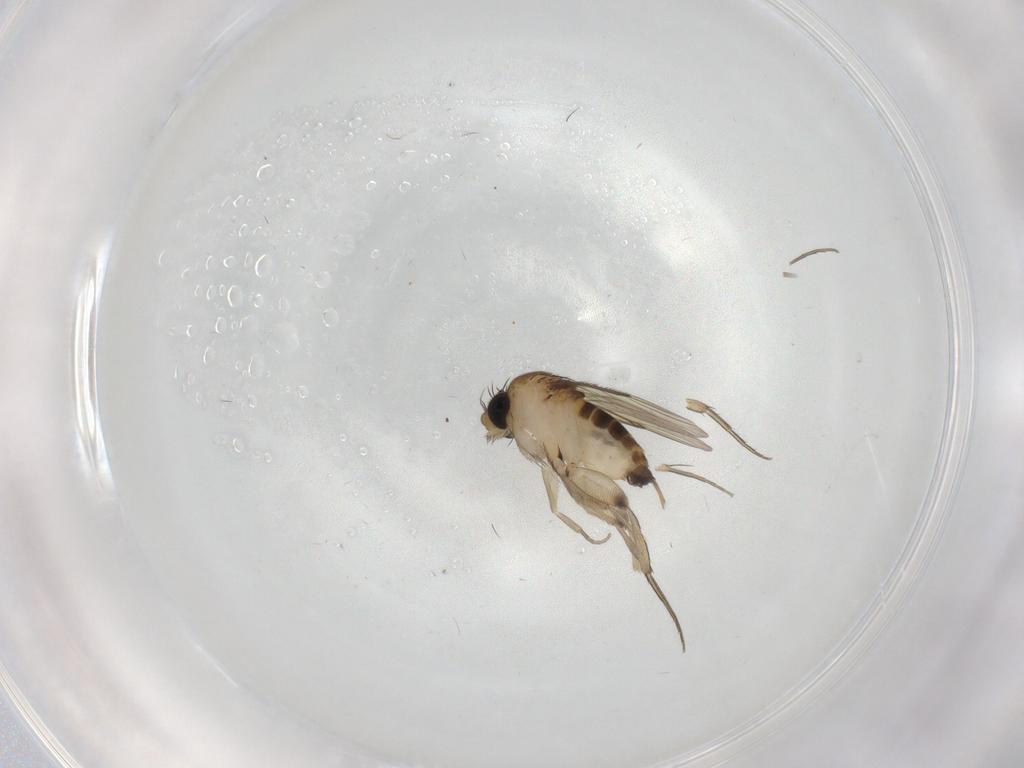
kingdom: Animalia
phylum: Arthropoda
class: Insecta
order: Diptera
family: Phoridae
